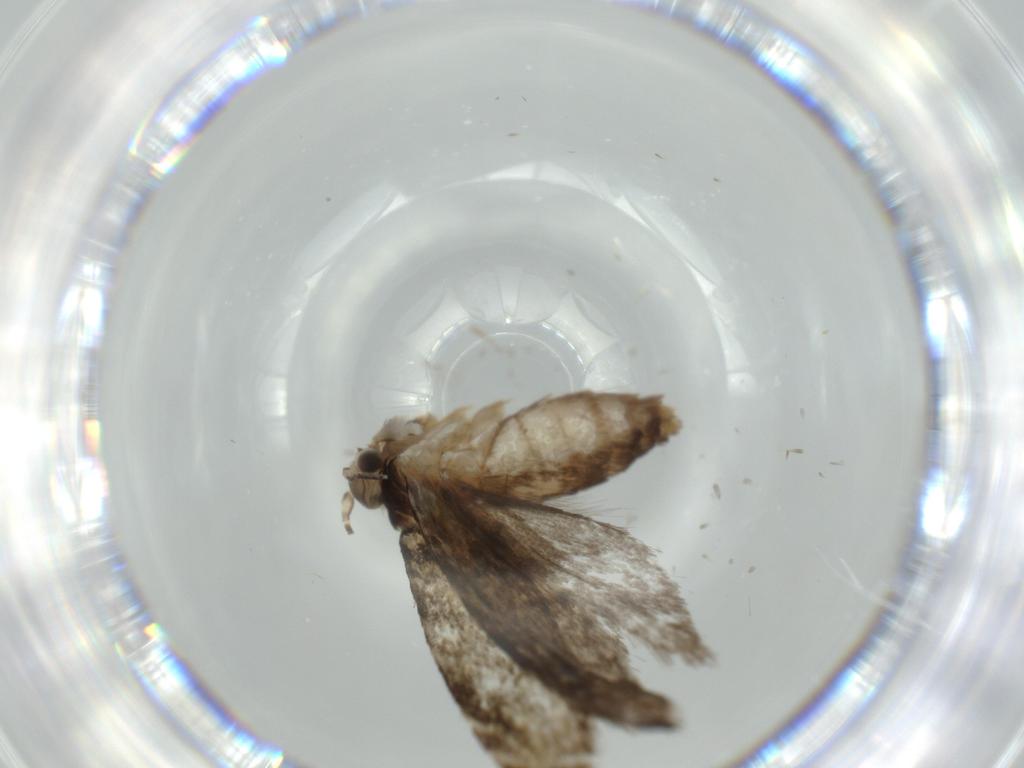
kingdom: Animalia
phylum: Arthropoda
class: Insecta
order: Lepidoptera
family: Tineidae
